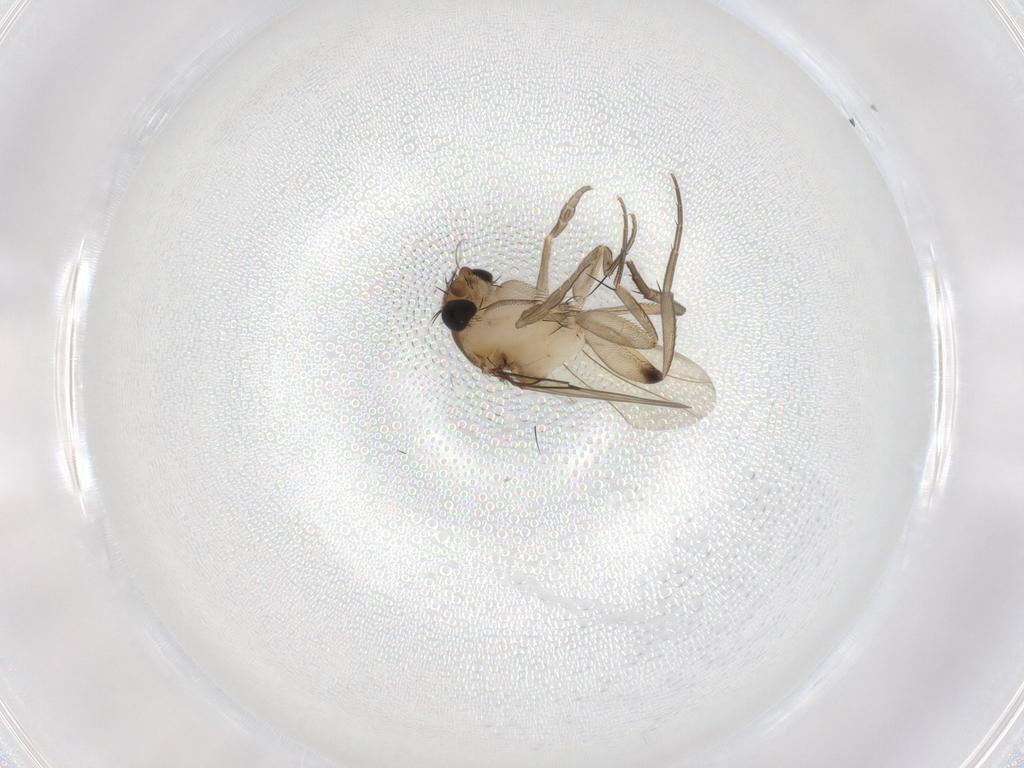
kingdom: Animalia
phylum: Arthropoda
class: Insecta
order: Diptera
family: Phoridae
